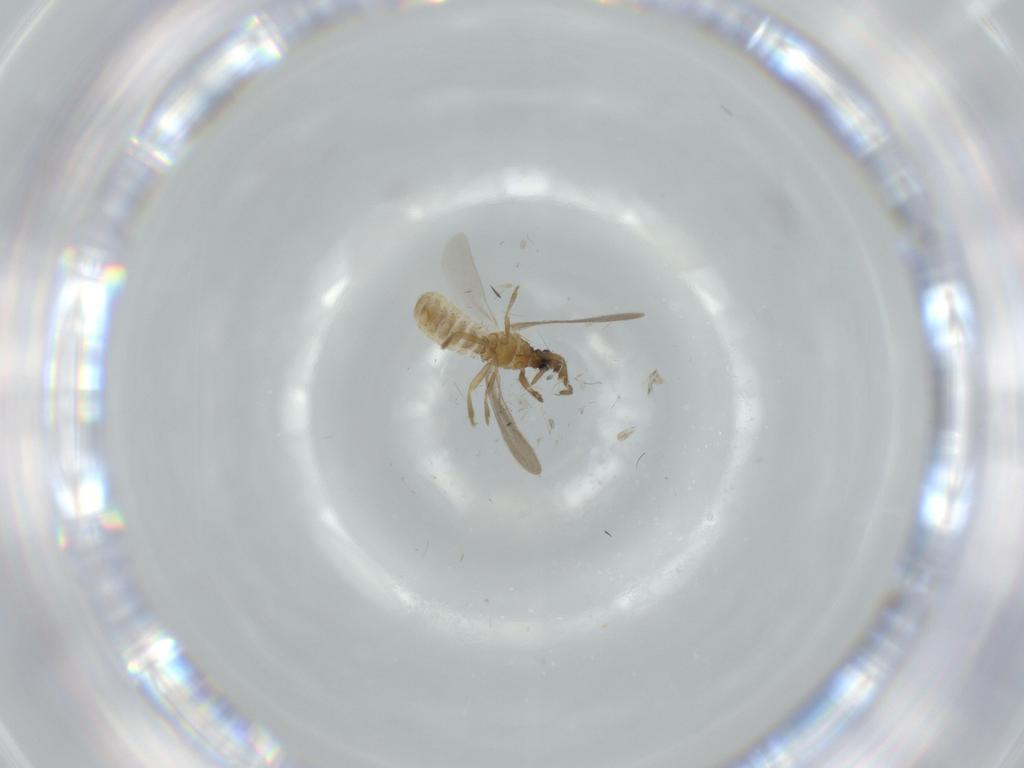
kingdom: Animalia
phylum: Arthropoda
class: Insecta
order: Hemiptera
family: Enicocephalidae
